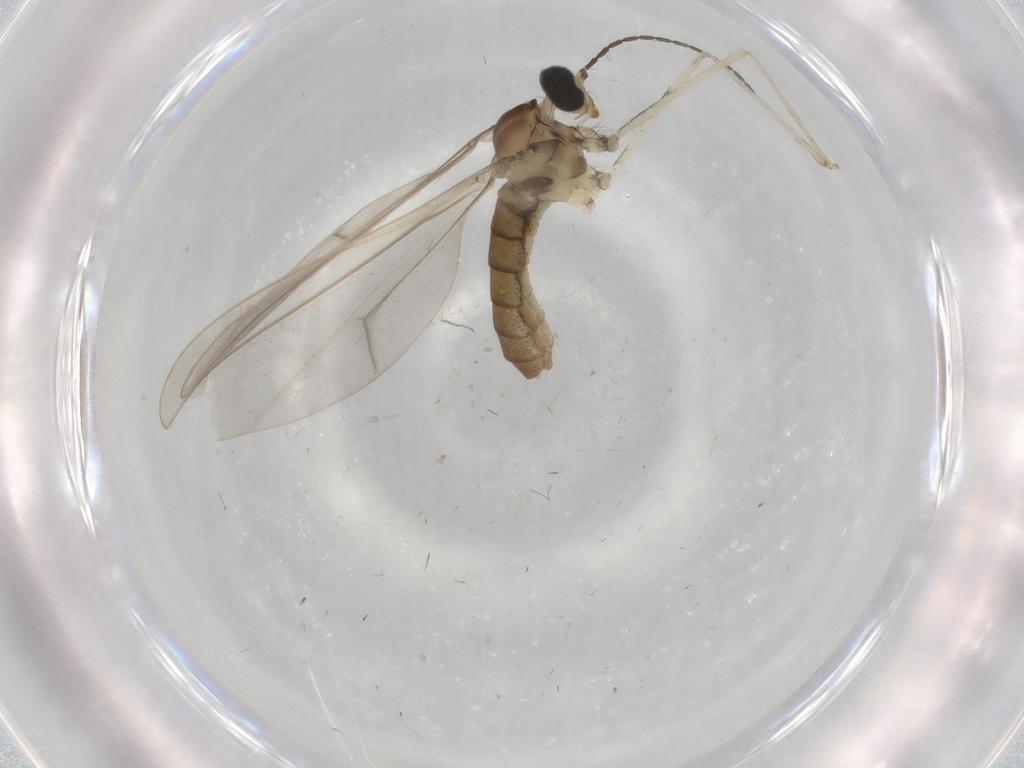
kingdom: Animalia
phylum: Arthropoda
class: Insecta
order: Diptera
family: Cecidomyiidae
